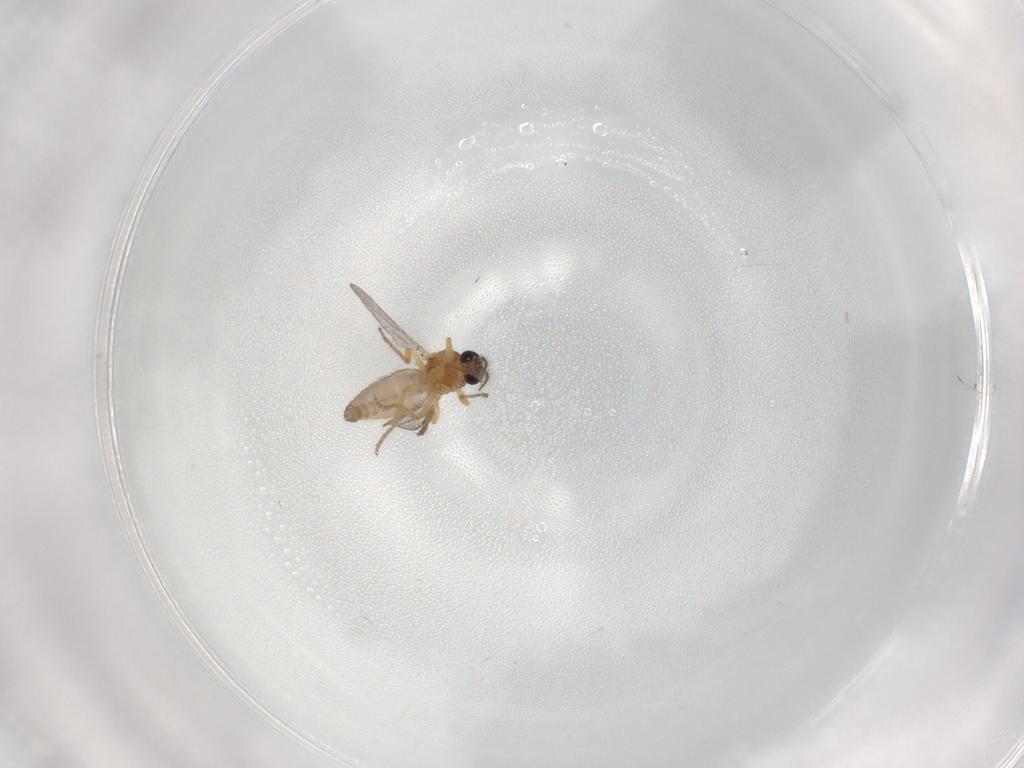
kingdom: Animalia
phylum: Arthropoda
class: Insecta
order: Diptera
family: Ceratopogonidae
